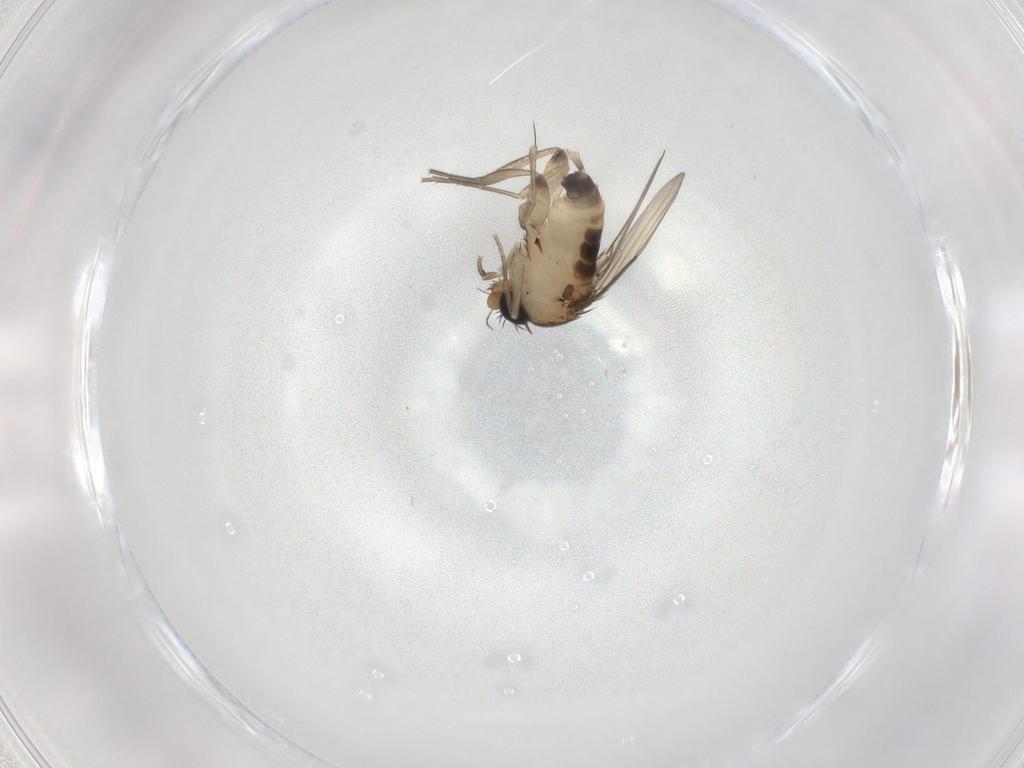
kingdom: Animalia
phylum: Arthropoda
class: Insecta
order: Diptera
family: Phoridae
